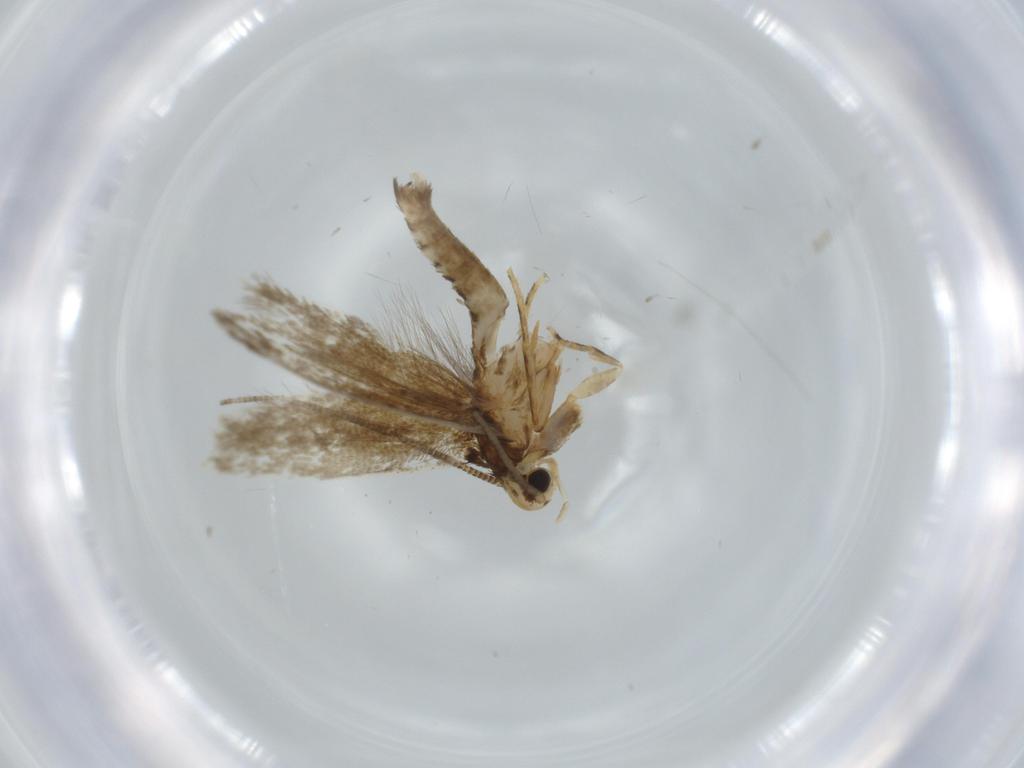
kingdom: Animalia
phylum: Arthropoda
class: Insecta
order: Lepidoptera
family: Tineidae
